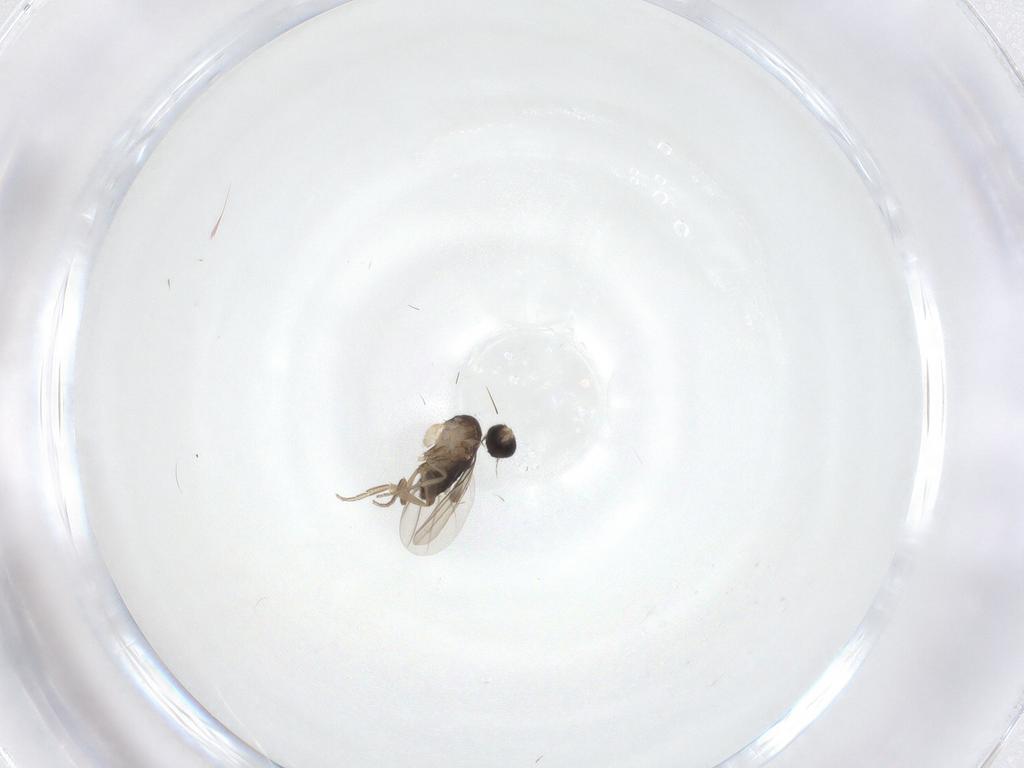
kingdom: Animalia
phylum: Arthropoda
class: Insecta
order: Diptera
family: Phoridae
